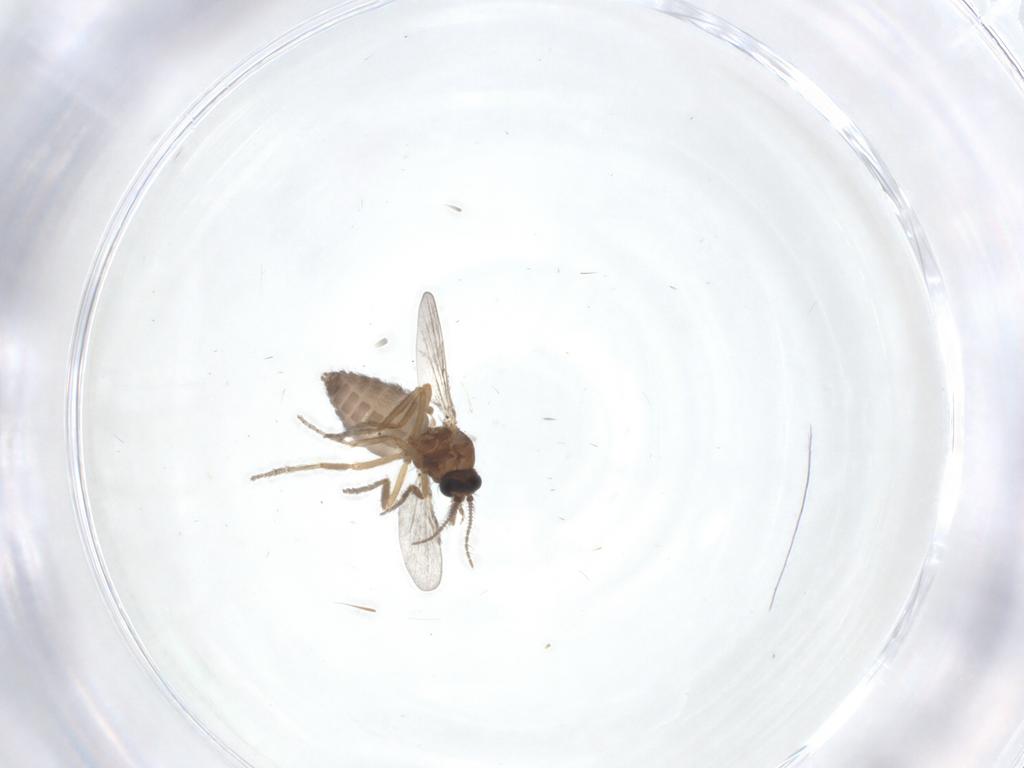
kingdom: Animalia
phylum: Arthropoda
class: Insecta
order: Diptera
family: Ceratopogonidae
